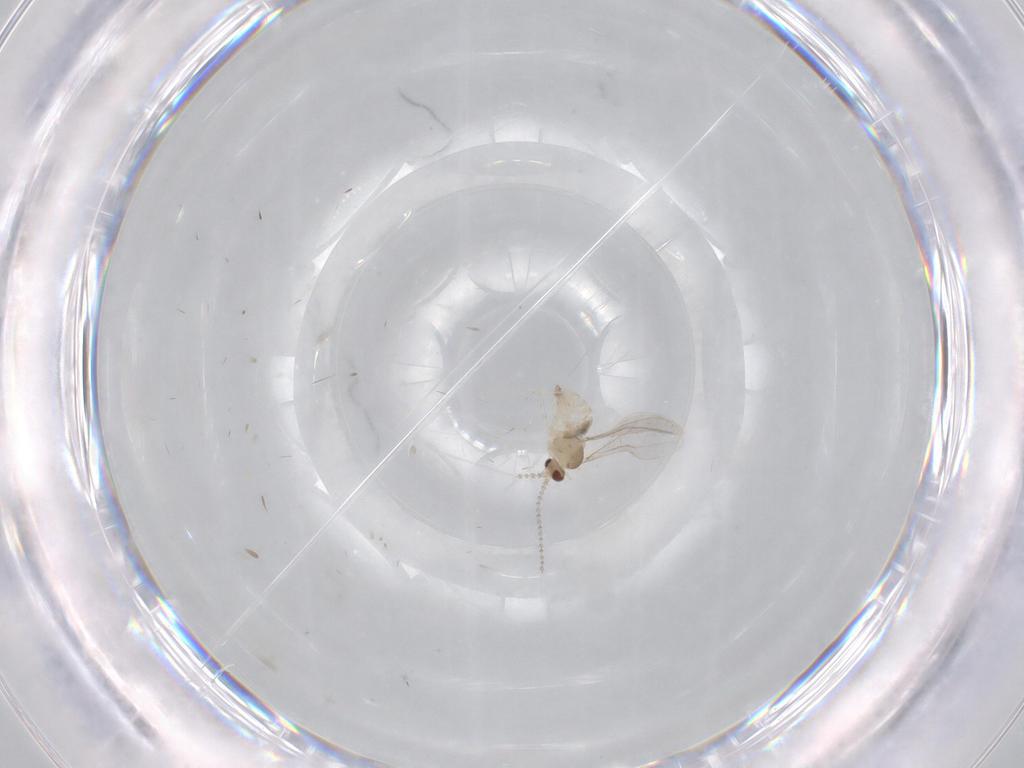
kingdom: Animalia
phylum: Arthropoda
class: Insecta
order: Diptera
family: Cecidomyiidae
